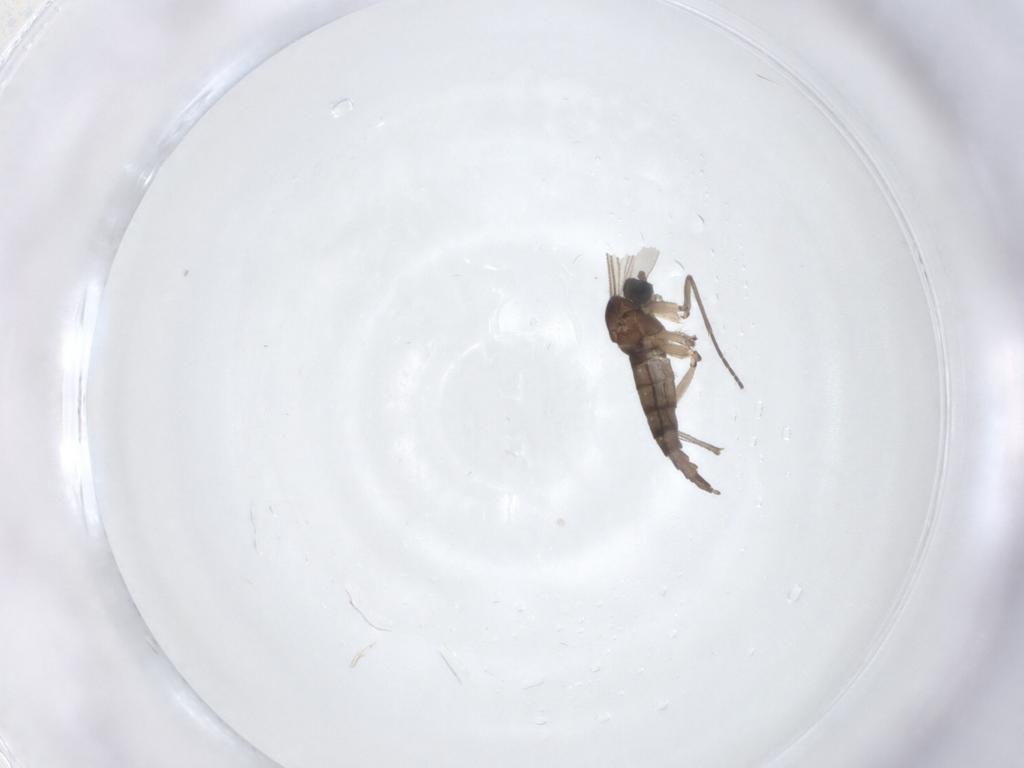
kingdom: Animalia
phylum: Arthropoda
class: Insecta
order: Diptera
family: Sciaridae
